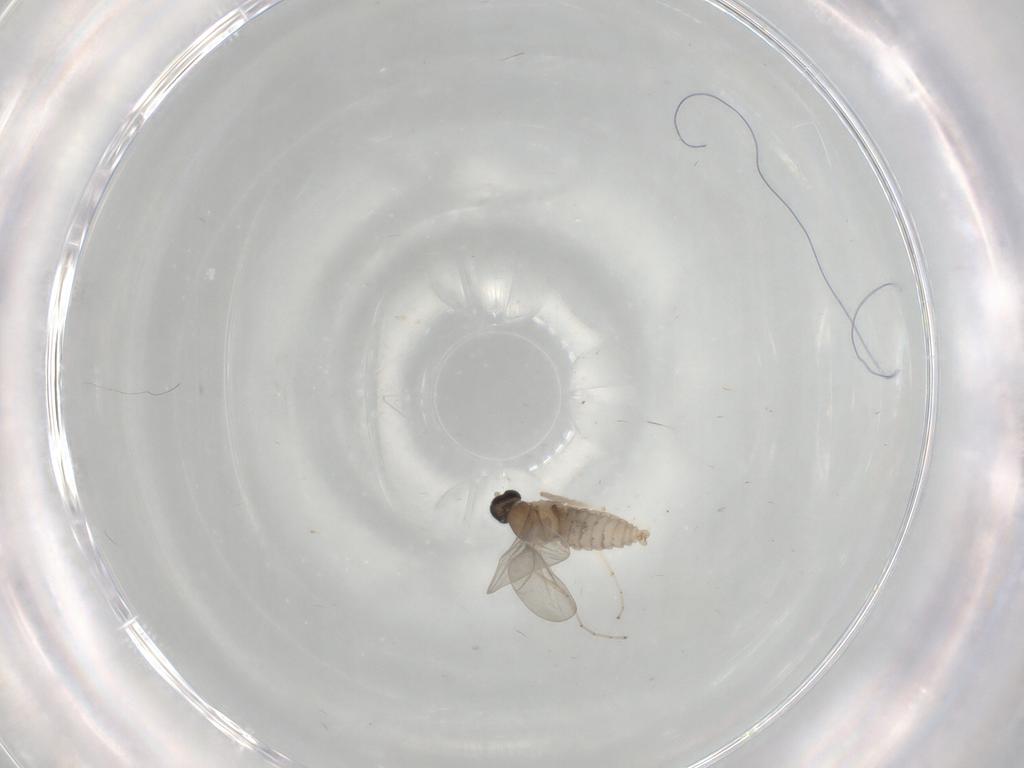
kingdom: Animalia
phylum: Arthropoda
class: Insecta
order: Diptera
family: Cecidomyiidae
